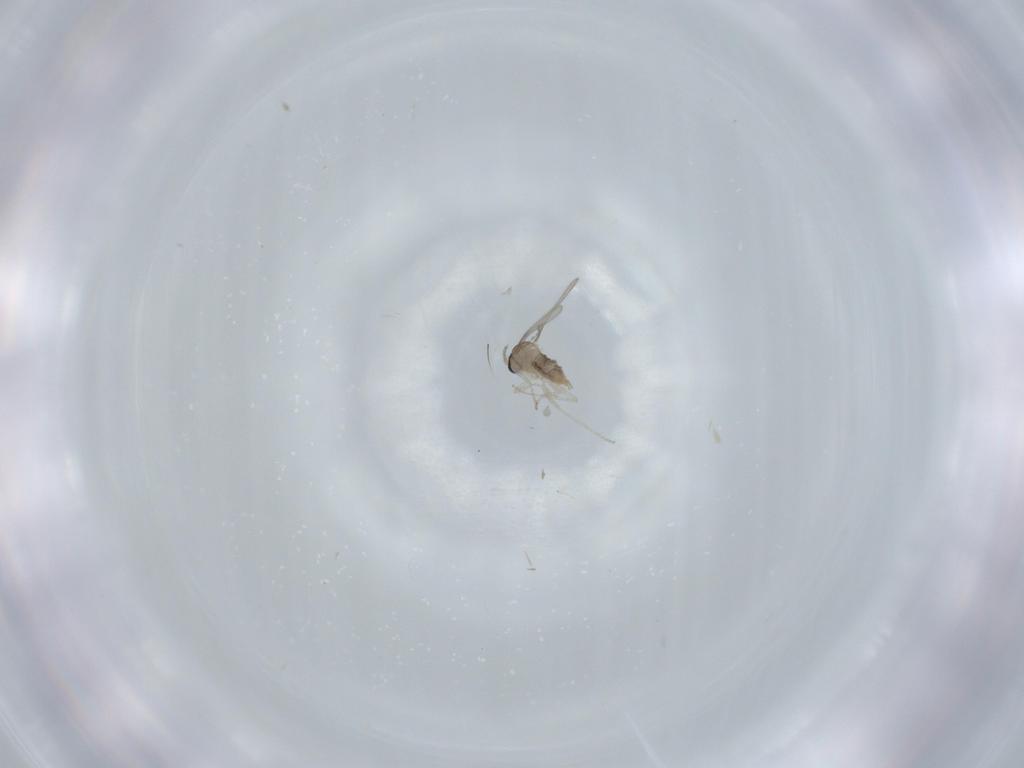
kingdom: Animalia
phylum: Arthropoda
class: Insecta
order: Diptera
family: Cecidomyiidae
